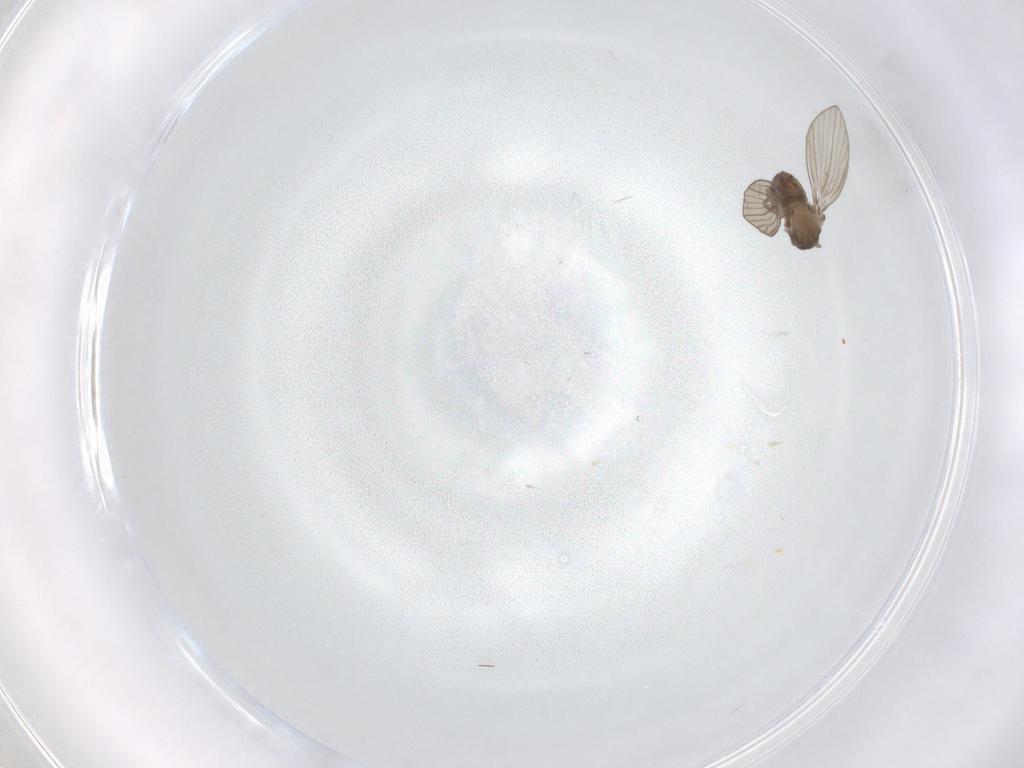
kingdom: Animalia
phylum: Arthropoda
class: Insecta
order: Diptera
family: Psychodidae
